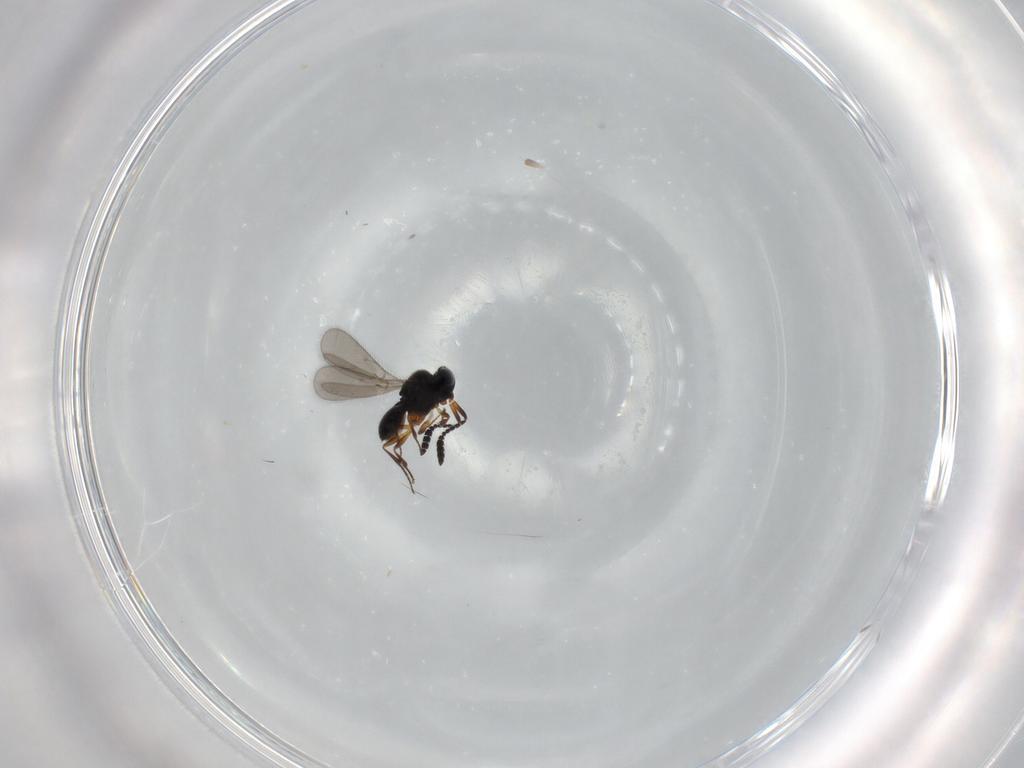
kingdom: Animalia
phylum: Arthropoda
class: Insecta
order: Hymenoptera
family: Scelionidae
